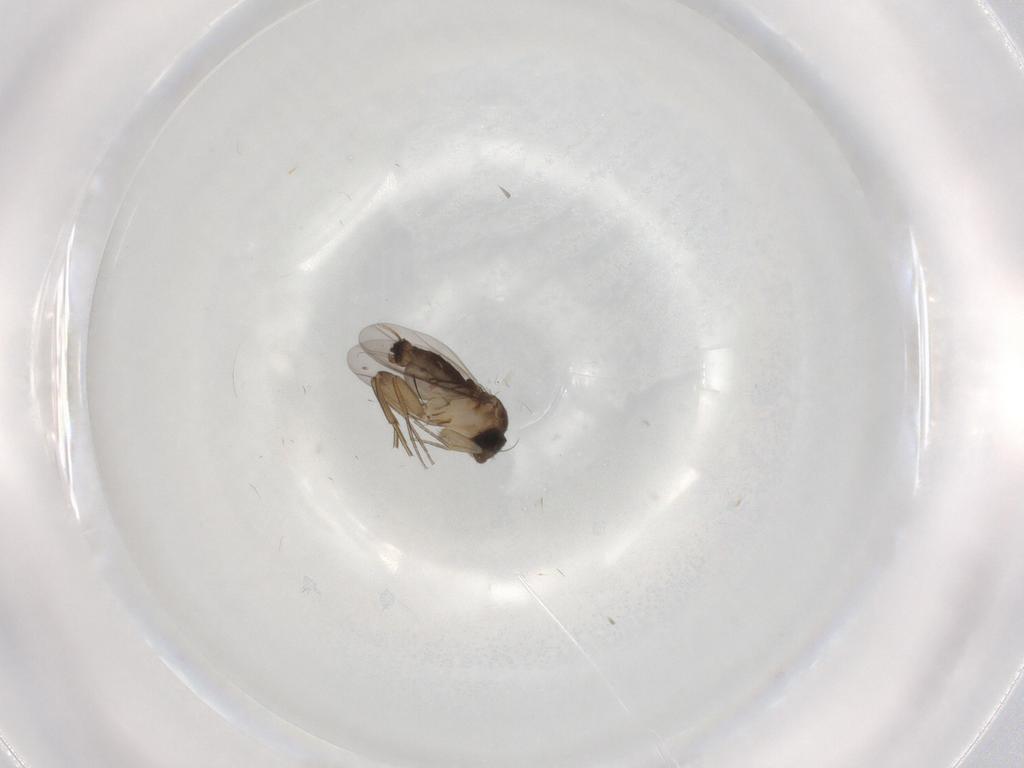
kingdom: Animalia
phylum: Arthropoda
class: Insecta
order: Diptera
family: Phoridae
